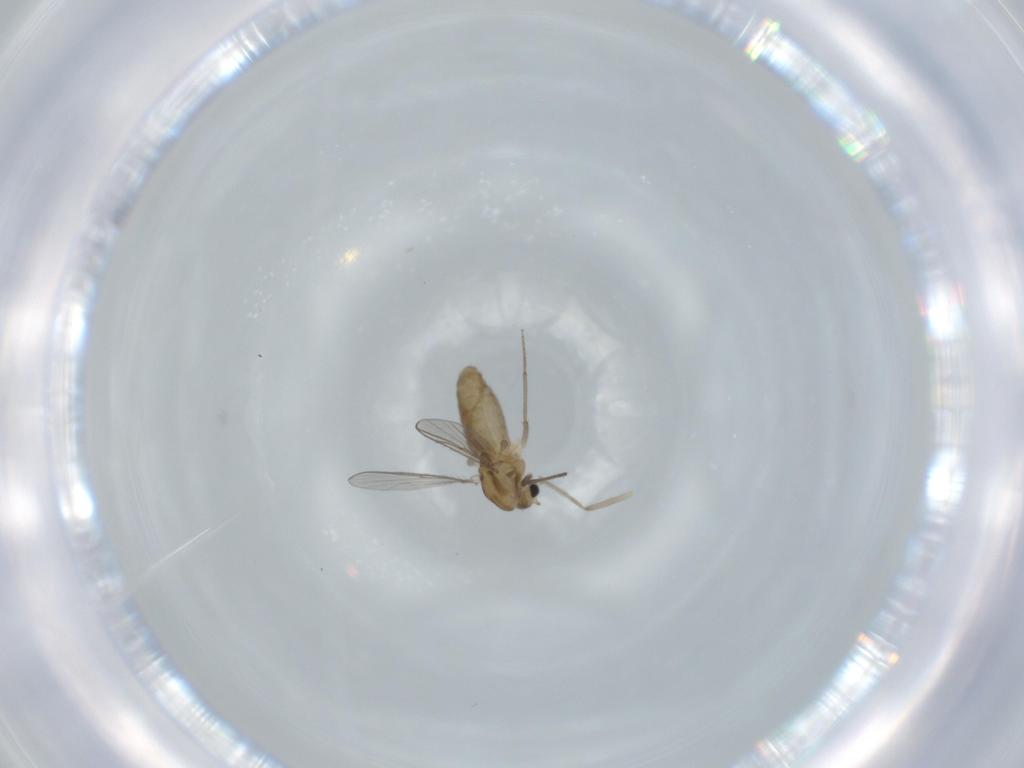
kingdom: Animalia
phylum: Arthropoda
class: Insecta
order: Diptera
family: Chironomidae
